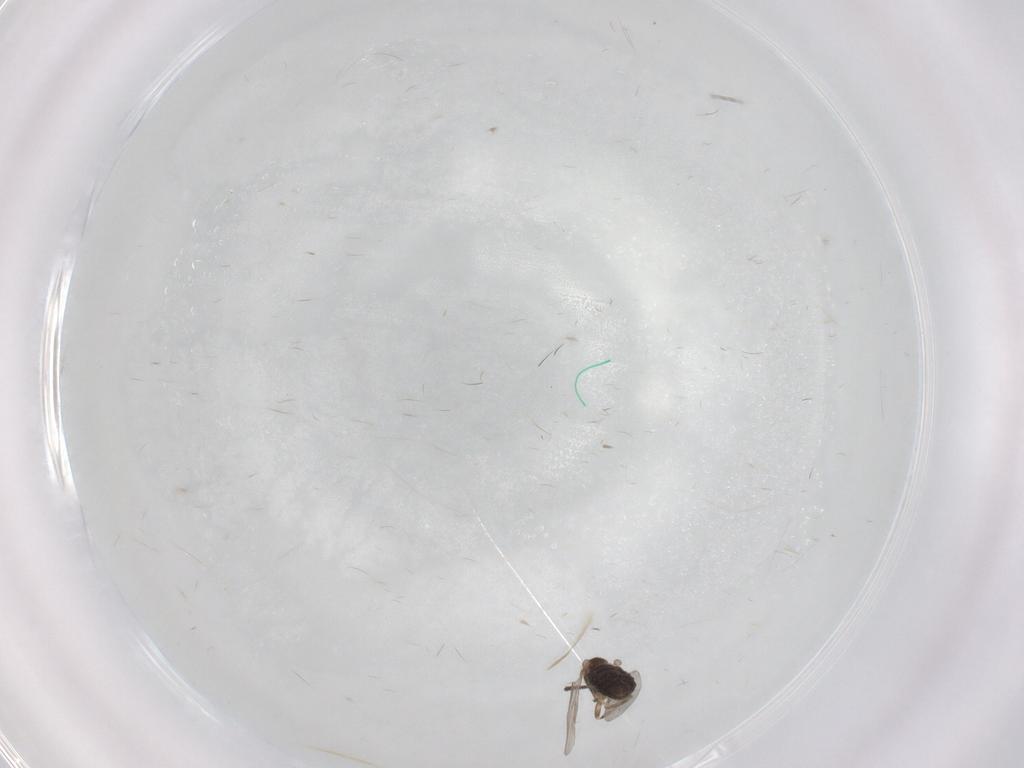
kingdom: Animalia
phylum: Arthropoda
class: Insecta
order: Diptera
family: Scatopsidae
